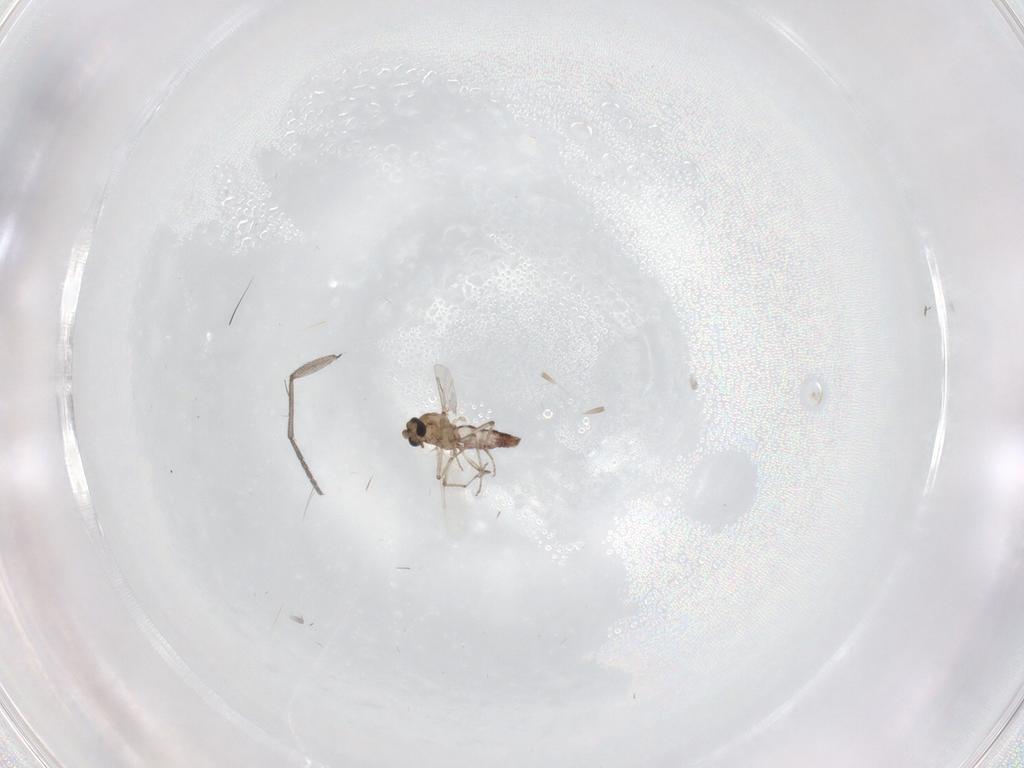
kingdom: Animalia
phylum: Arthropoda
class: Insecta
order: Diptera
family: Sciaridae
